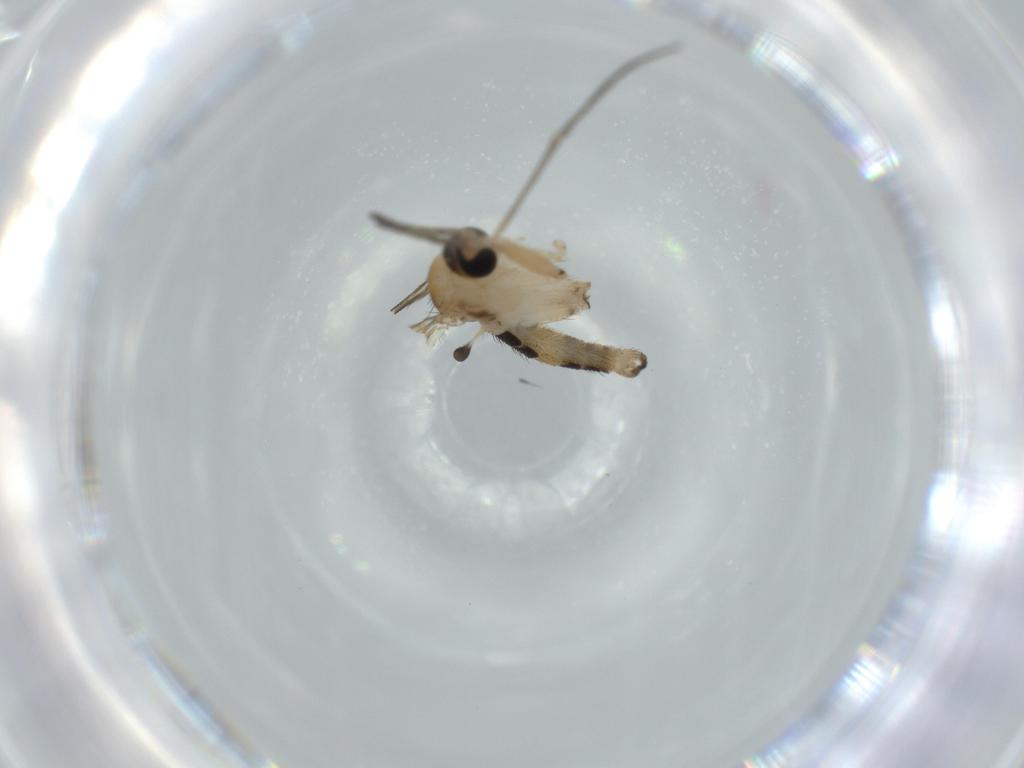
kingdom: Animalia
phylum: Arthropoda
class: Insecta
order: Diptera
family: Sciaridae
